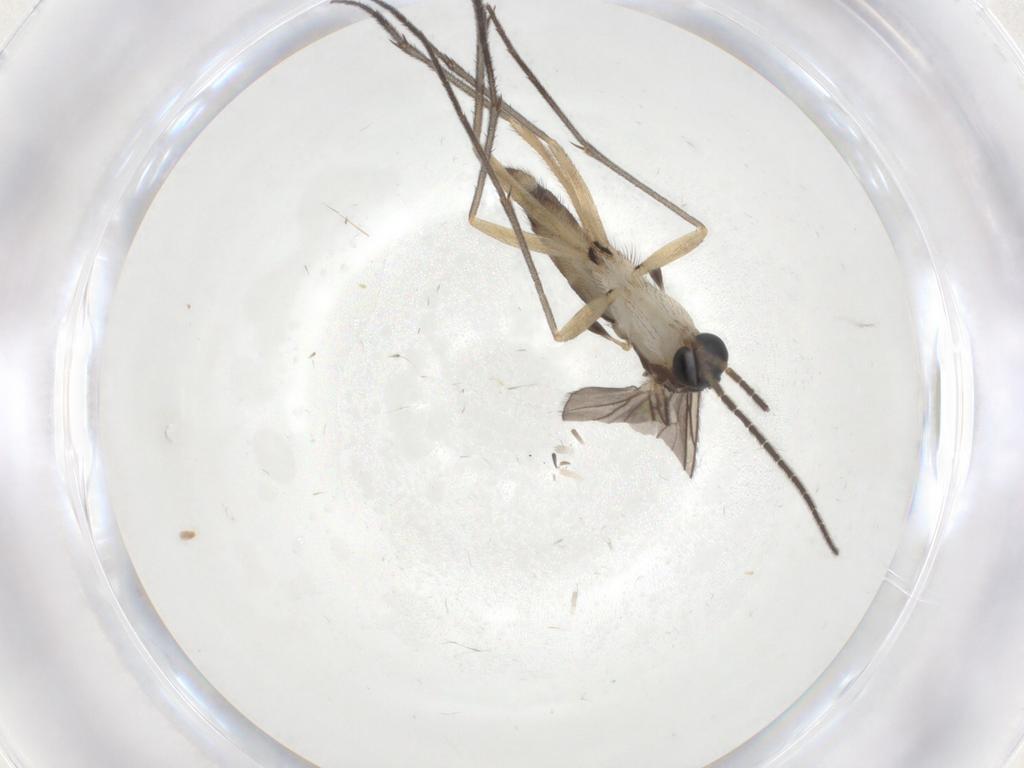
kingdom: Animalia
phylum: Arthropoda
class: Insecta
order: Diptera
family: Sciaridae
